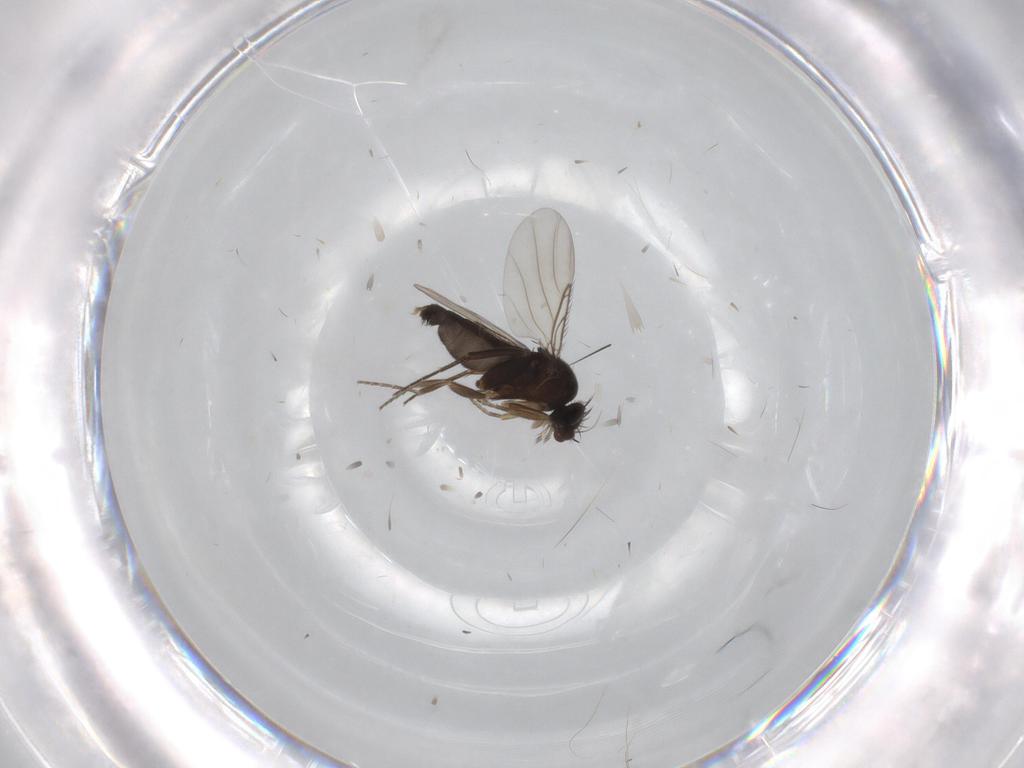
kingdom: Animalia
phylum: Arthropoda
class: Insecta
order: Diptera
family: Phoridae
